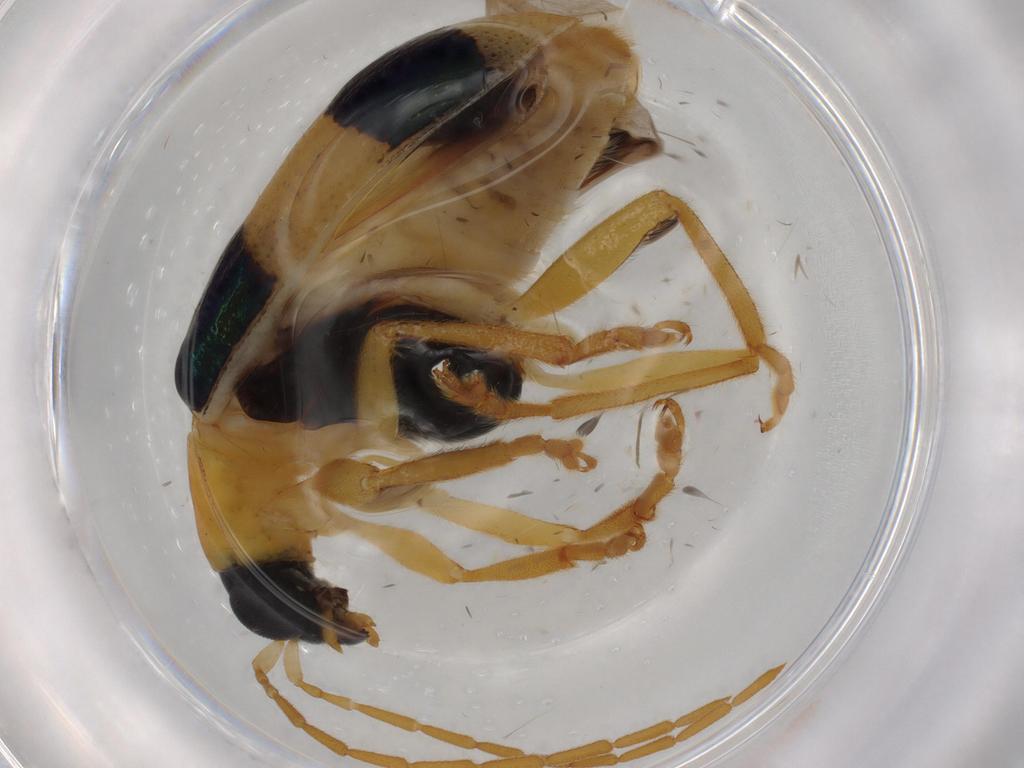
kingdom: Animalia
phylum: Arthropoda
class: Insecta
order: Coleoptera
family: Chrysomelidae
